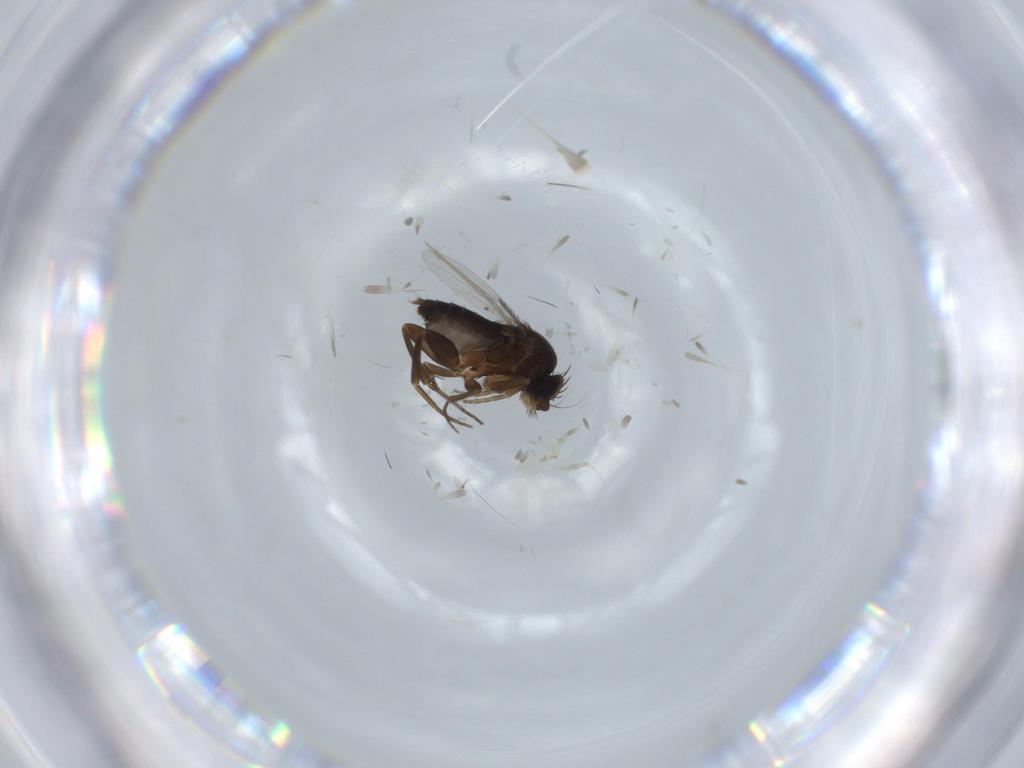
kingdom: Animalia
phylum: Arthropoda
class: Insecta
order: Diptera
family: Phoridae
